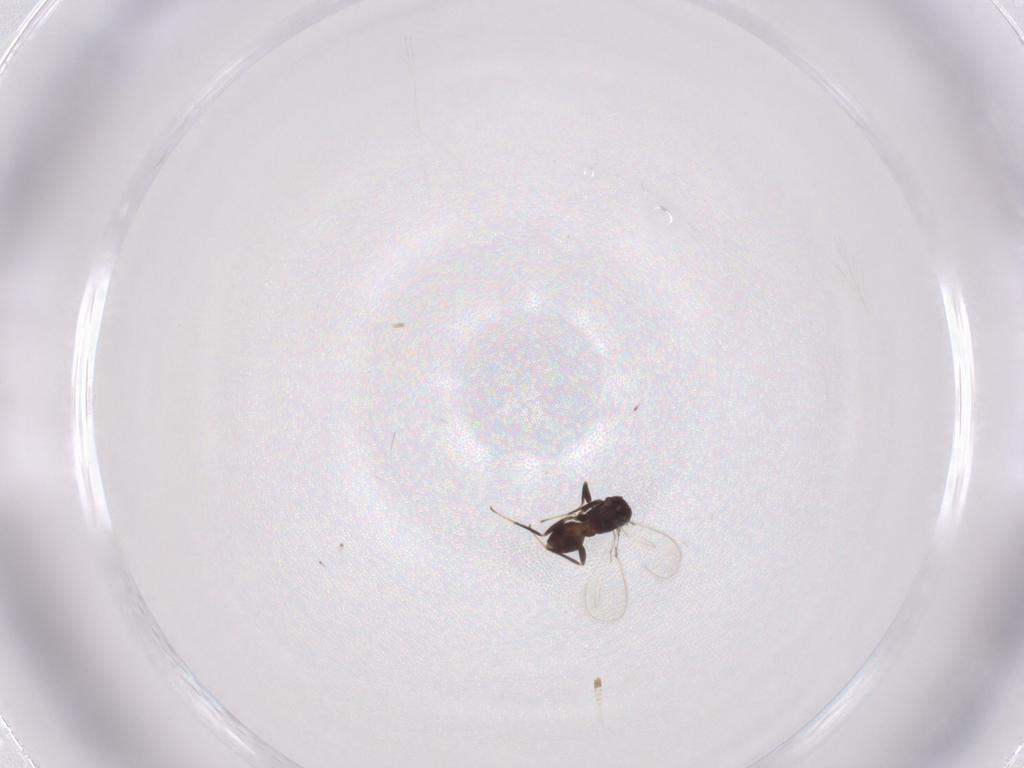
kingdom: Animalia
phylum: Arthropoda
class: Insecta
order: Hymenoptera
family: Mymaridae
